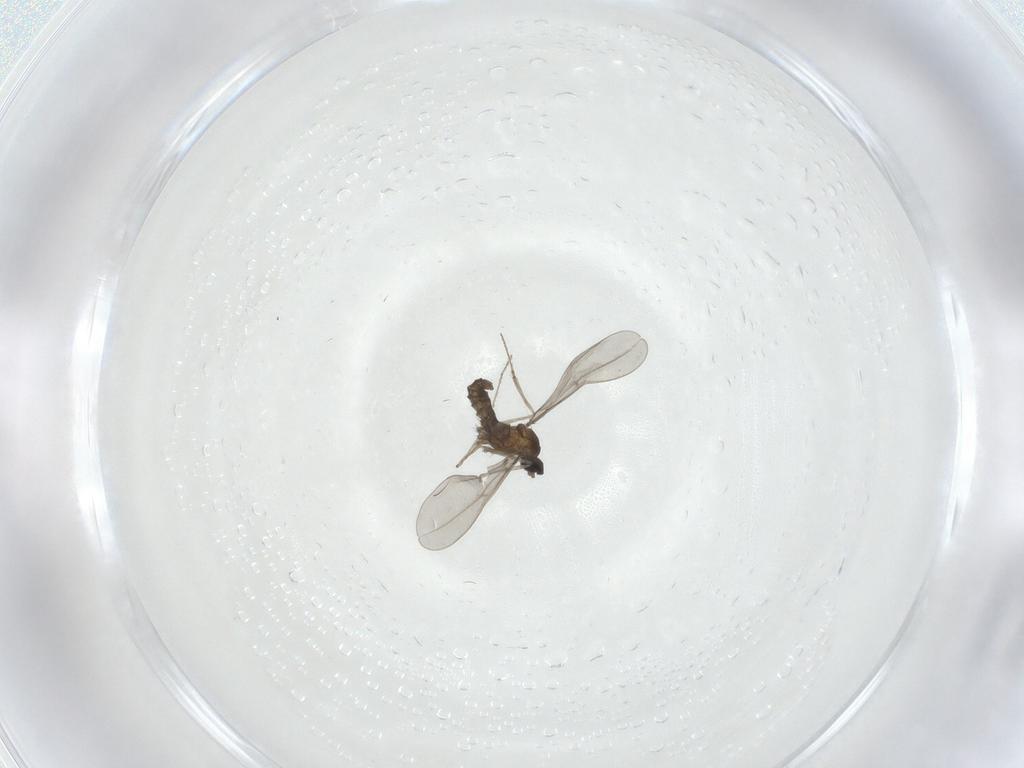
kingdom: Animalia
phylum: Arthropoda
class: Insecta
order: Diptera
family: Cecidomyiidae
